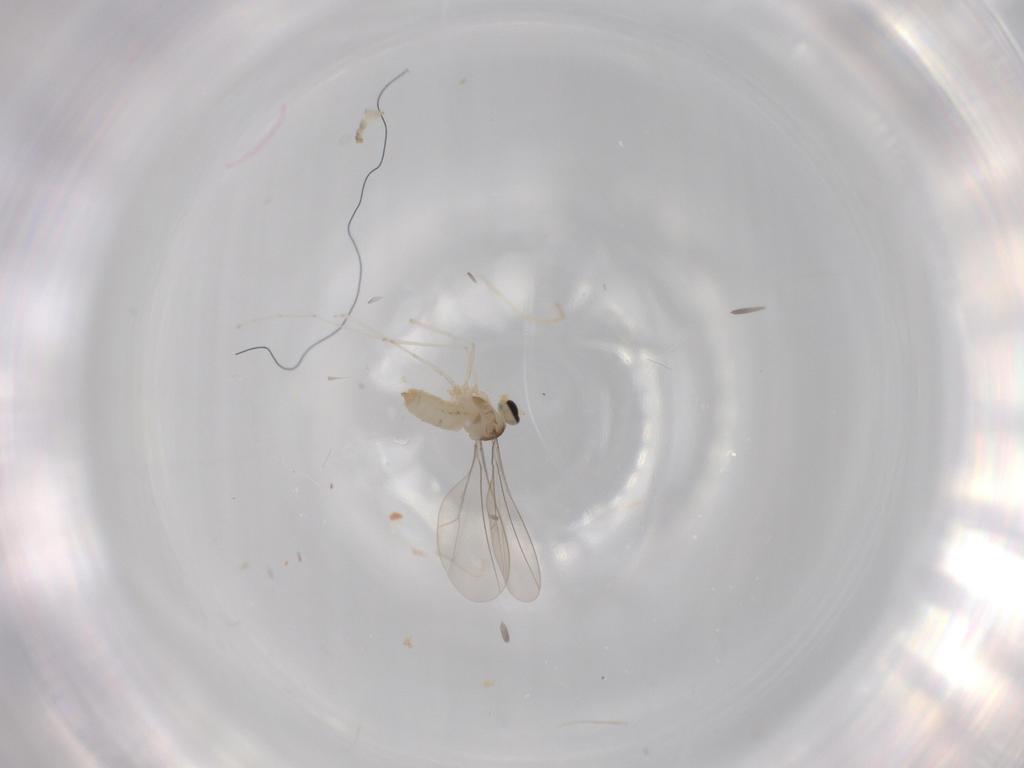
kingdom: Animalia
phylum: Arthropoda
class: Insecta
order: Diptera
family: Cecidomyiidae
